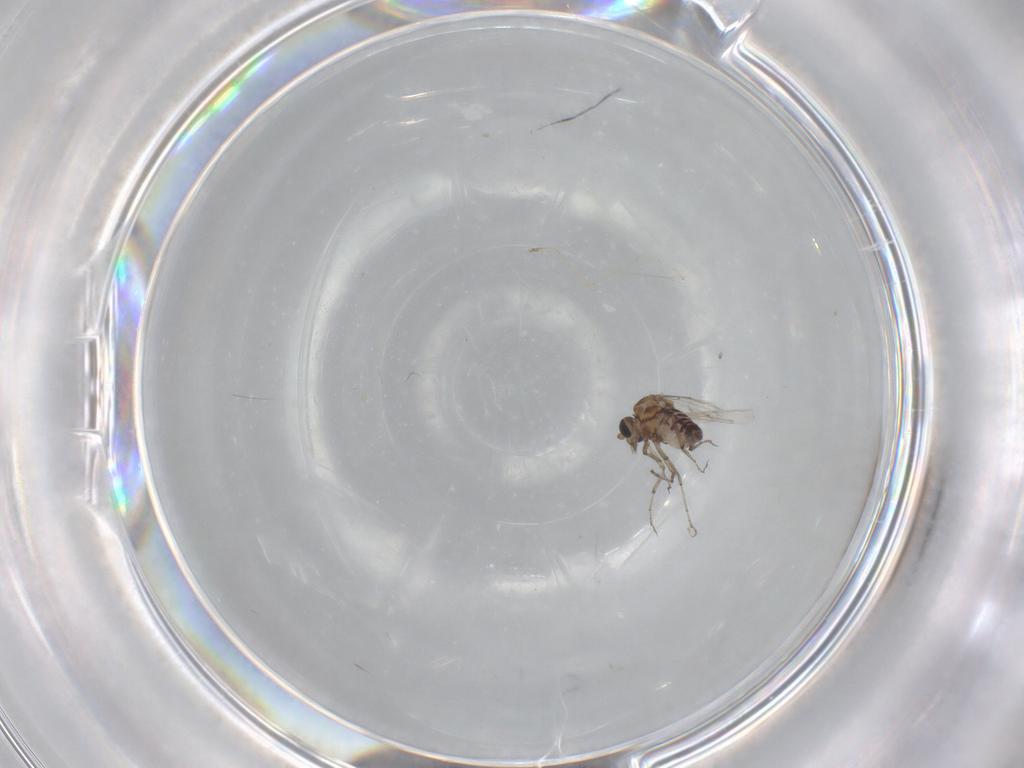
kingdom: Animalia
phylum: Arthropoda
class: Insecta
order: Diptera
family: Ceratopogonidae
